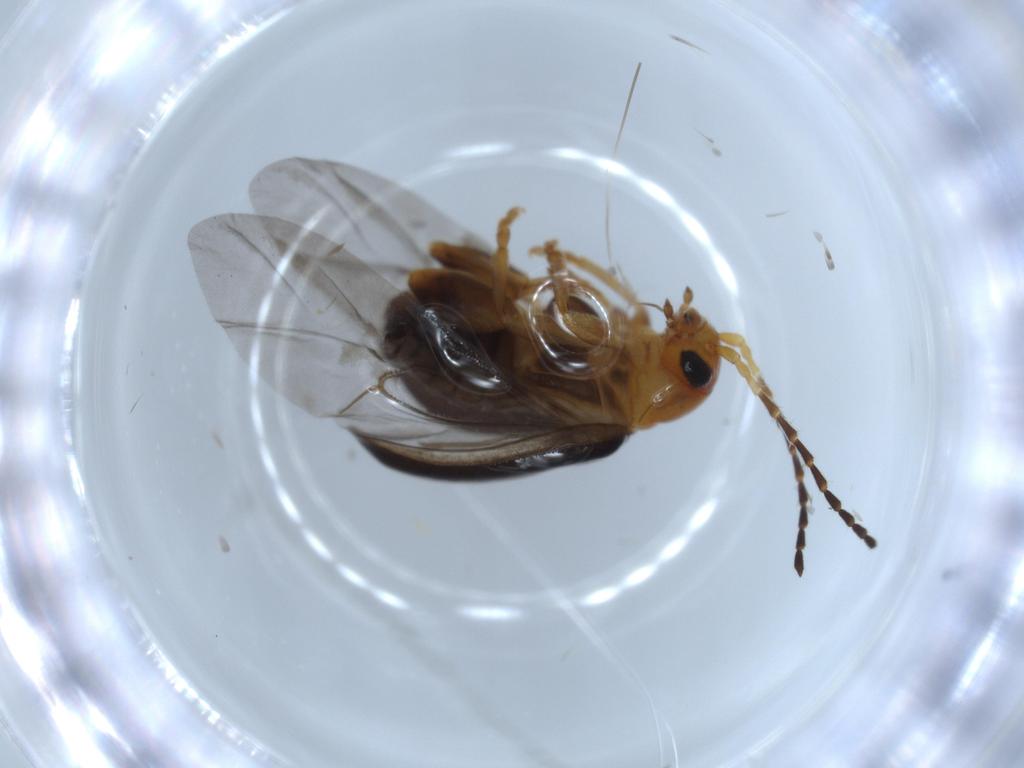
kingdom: Animalia
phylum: Arthropoda
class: Insecta
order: Coleoptera
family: Chrysomelidae
